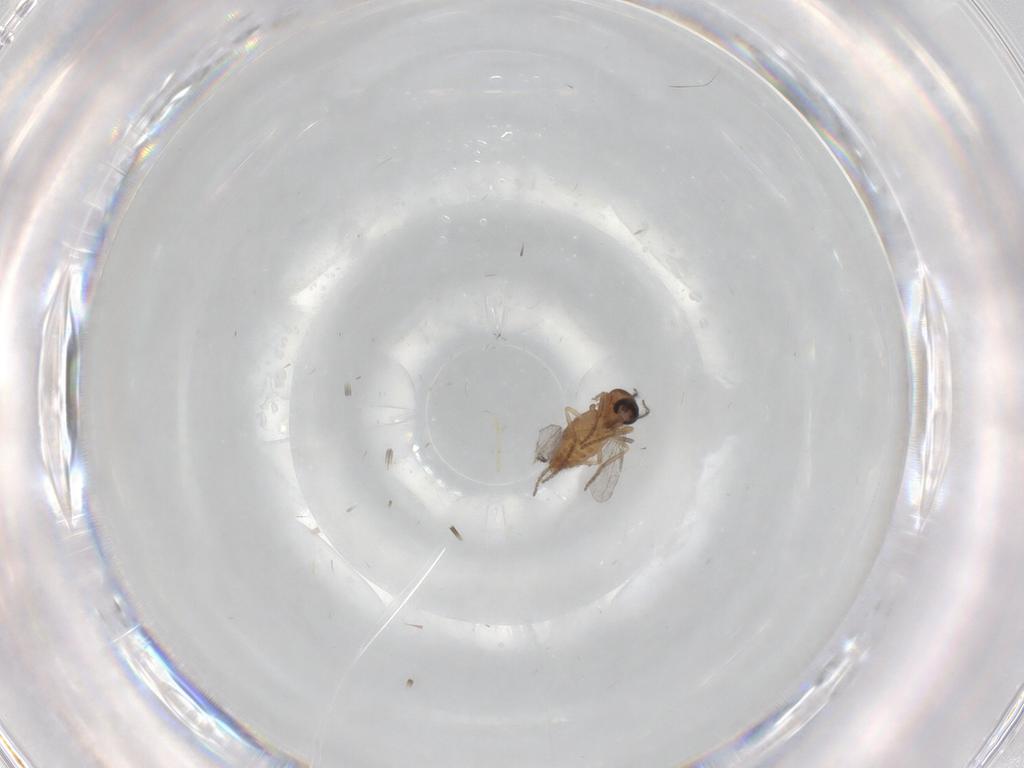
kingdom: Animalia
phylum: Arthropoda
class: Insecta
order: Diptera
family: Ceratopogonidae
